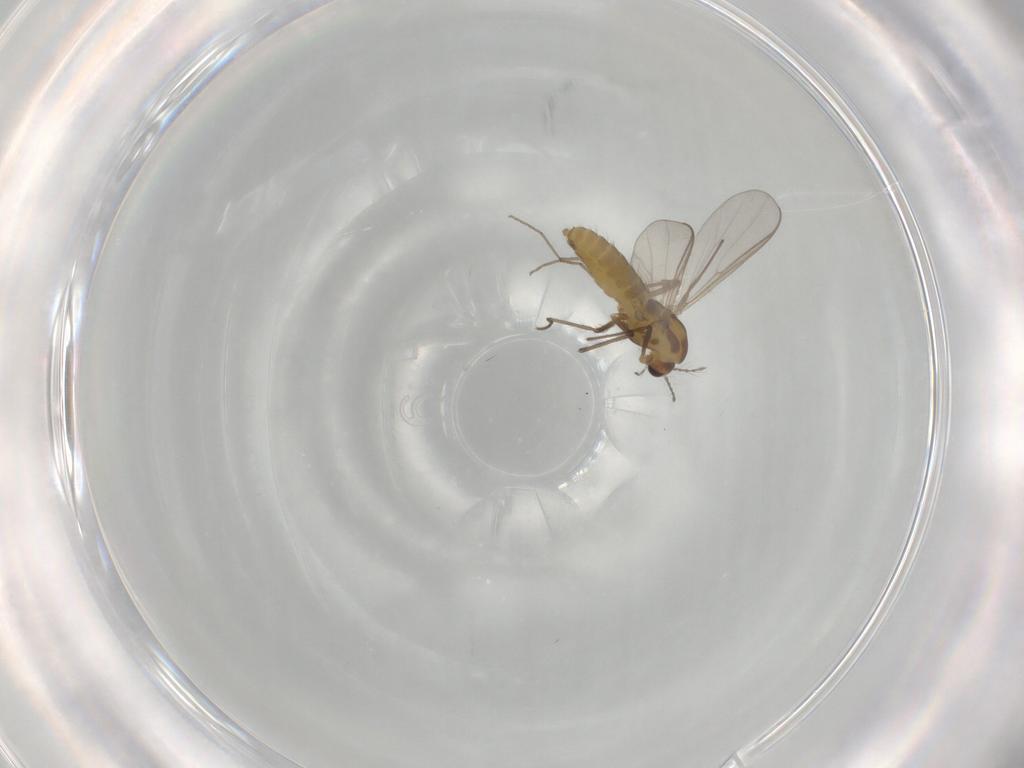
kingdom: Animalia
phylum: Arthropoda
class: Insecta
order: Diptera
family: Chironomidae
